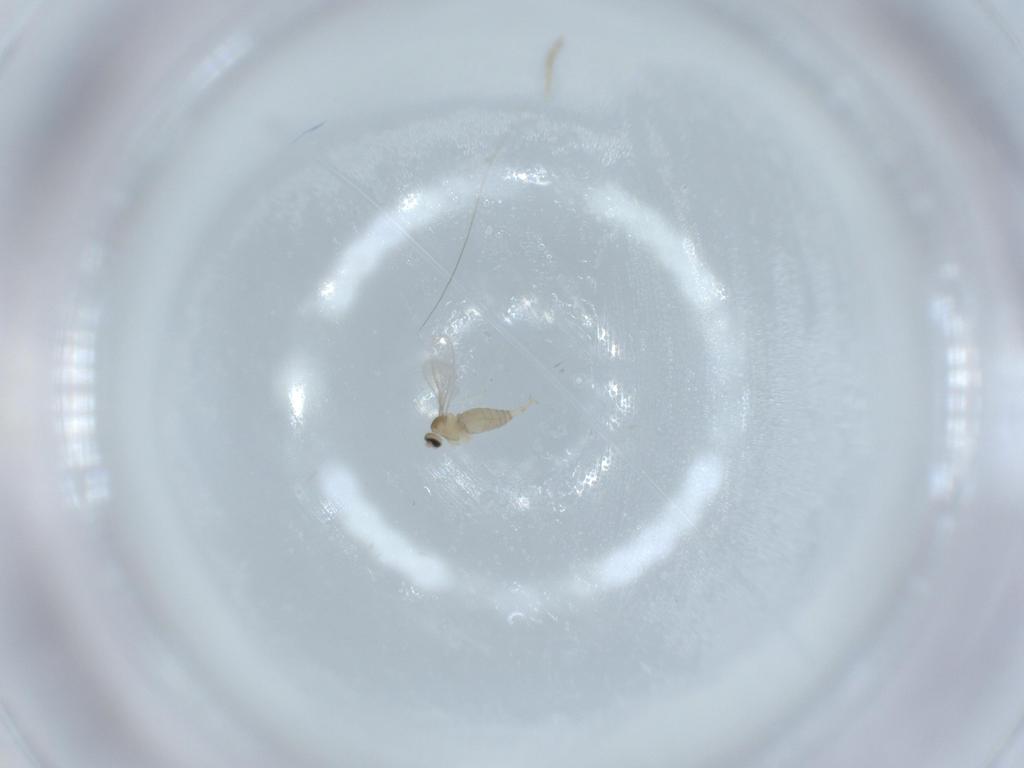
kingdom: Animalia
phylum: Arthropoda
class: Insecta
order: Diptera
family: Cecidomyiidae
